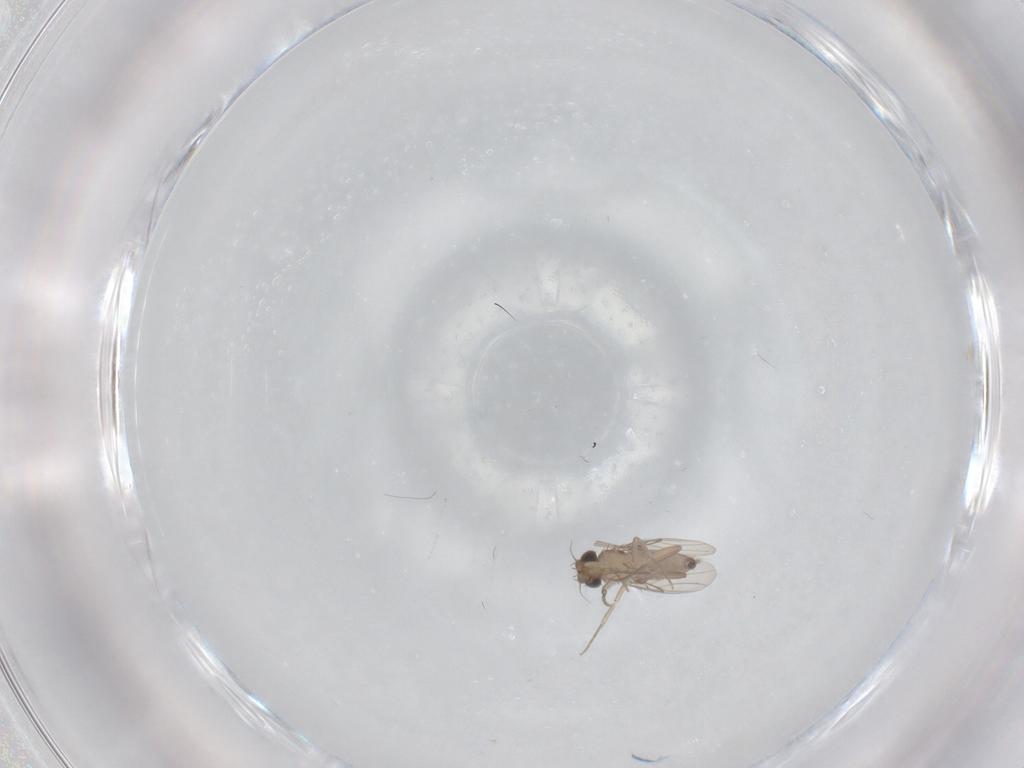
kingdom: Animalia
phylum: Arthropoda
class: Insecta
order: Diptera
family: Phoridae
